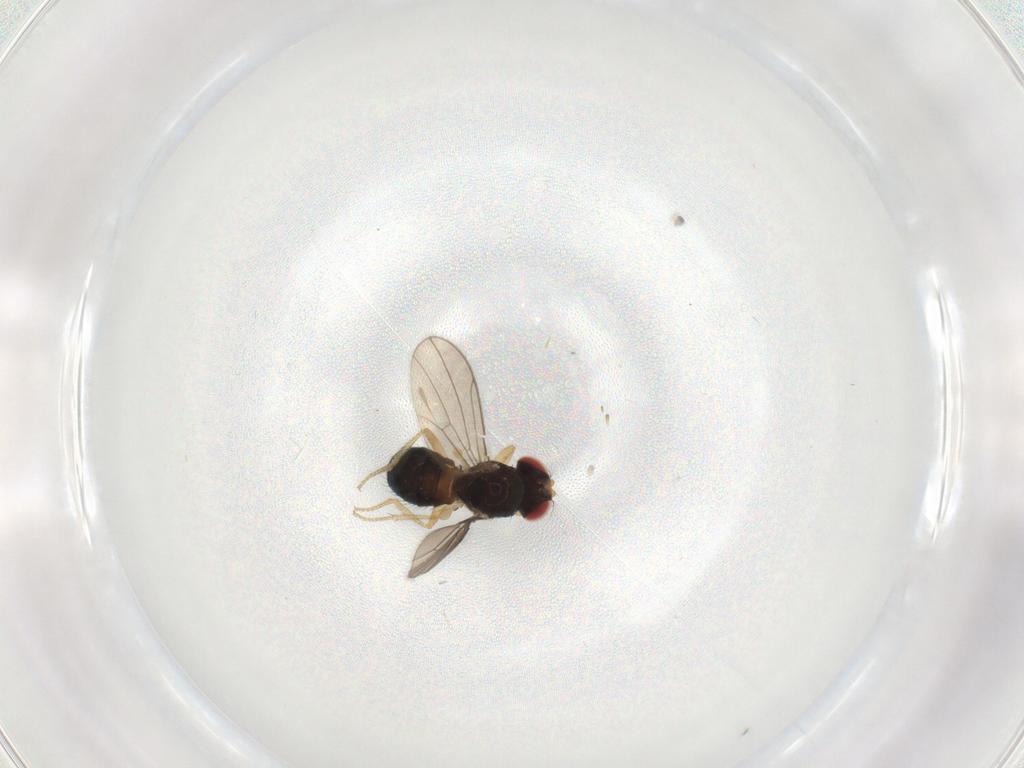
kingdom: Animalia
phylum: Arthropoda
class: Insecta
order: Diptera
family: Drosophilidae
